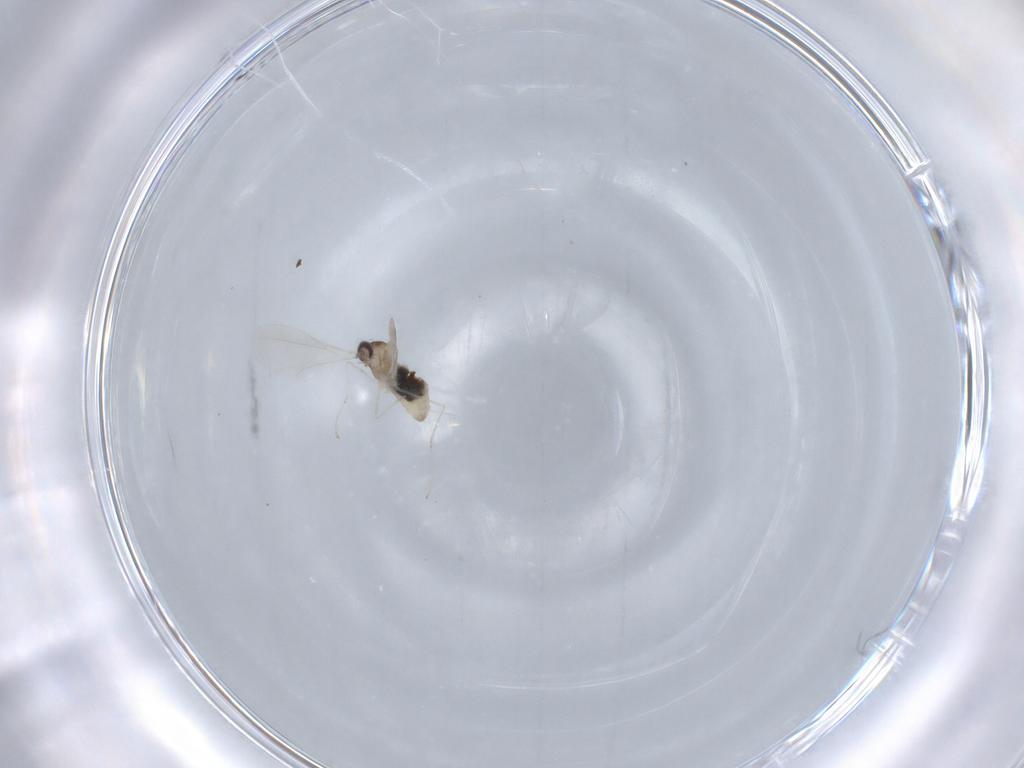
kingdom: Animalia
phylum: Arthropoda
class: Insecta
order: Diptera
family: Cecidomyiidae
